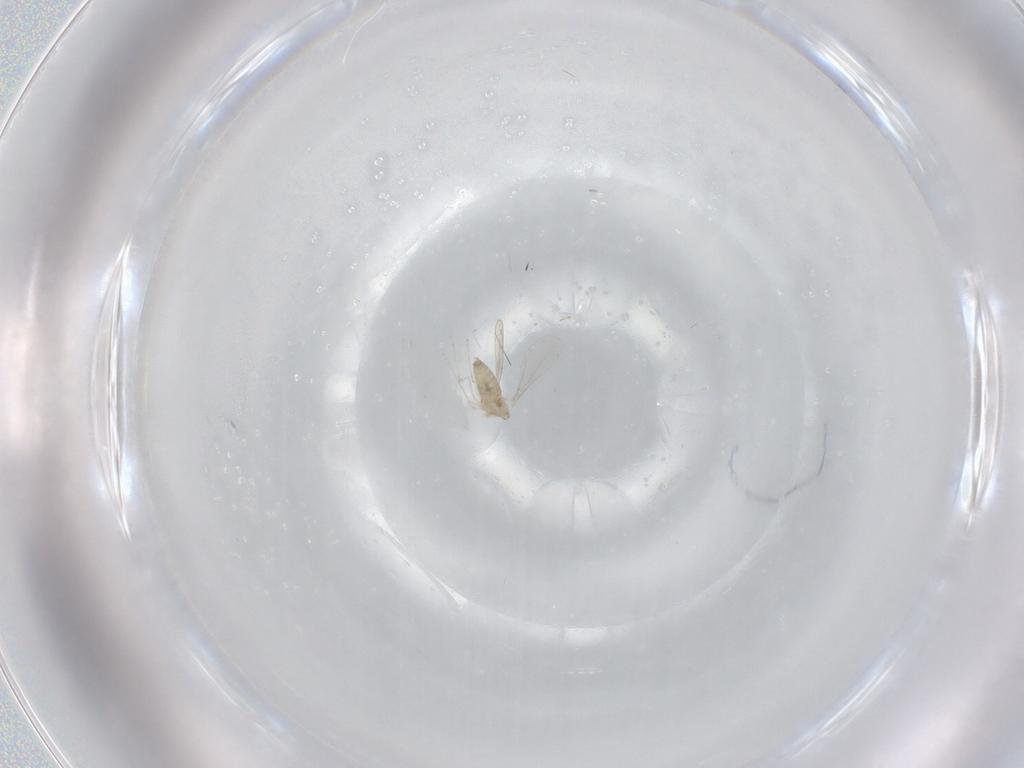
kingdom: Animalia
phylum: Arthropoda
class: Insecta
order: Diptera
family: Cecidomyiidae
